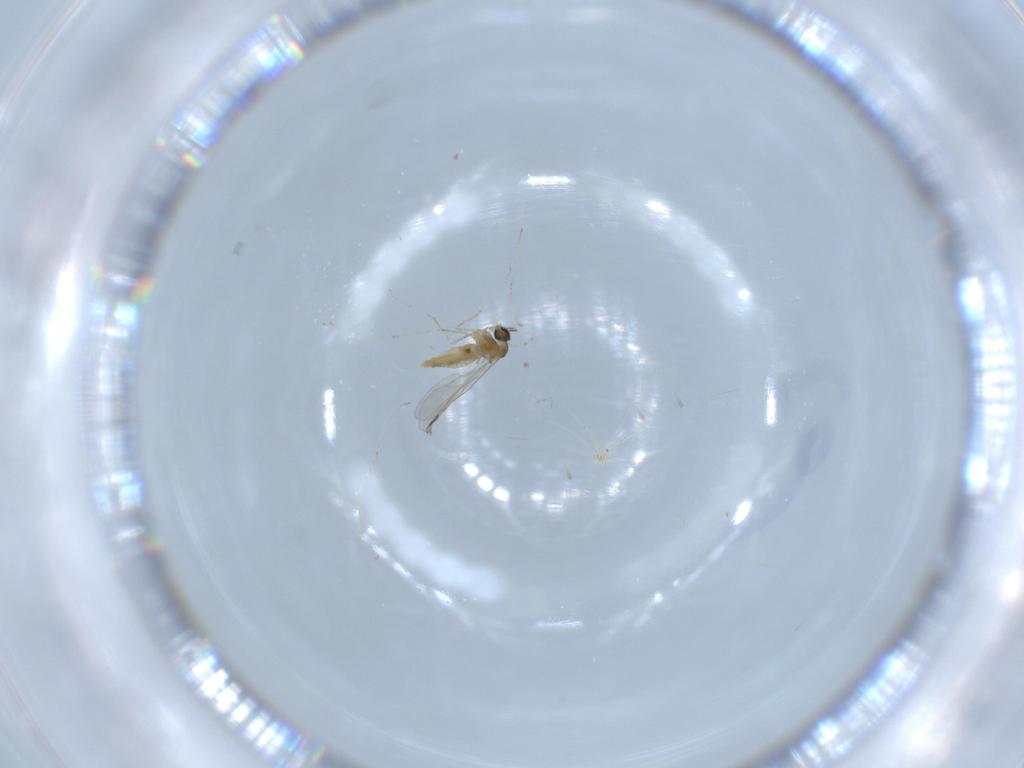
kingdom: Animalia
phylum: Arthropoda
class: Insecta
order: Diptera
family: Cecidomyiidae
